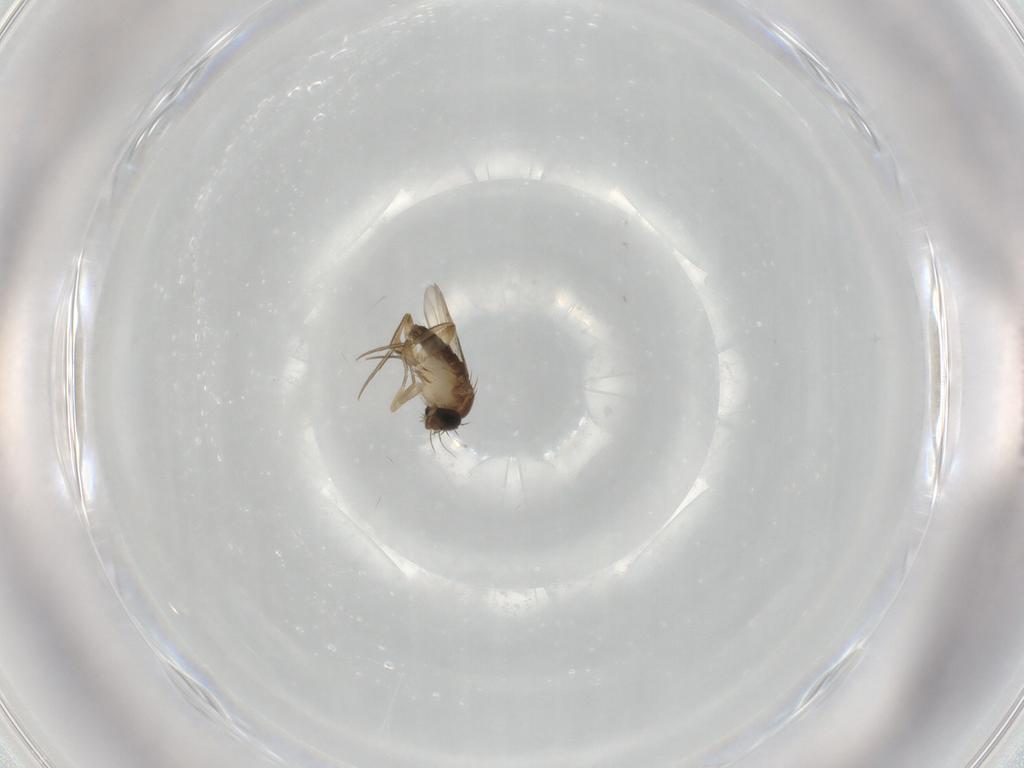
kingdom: Animalia
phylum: Arthropoda
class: Insecta
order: Diptera
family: Phoridae
